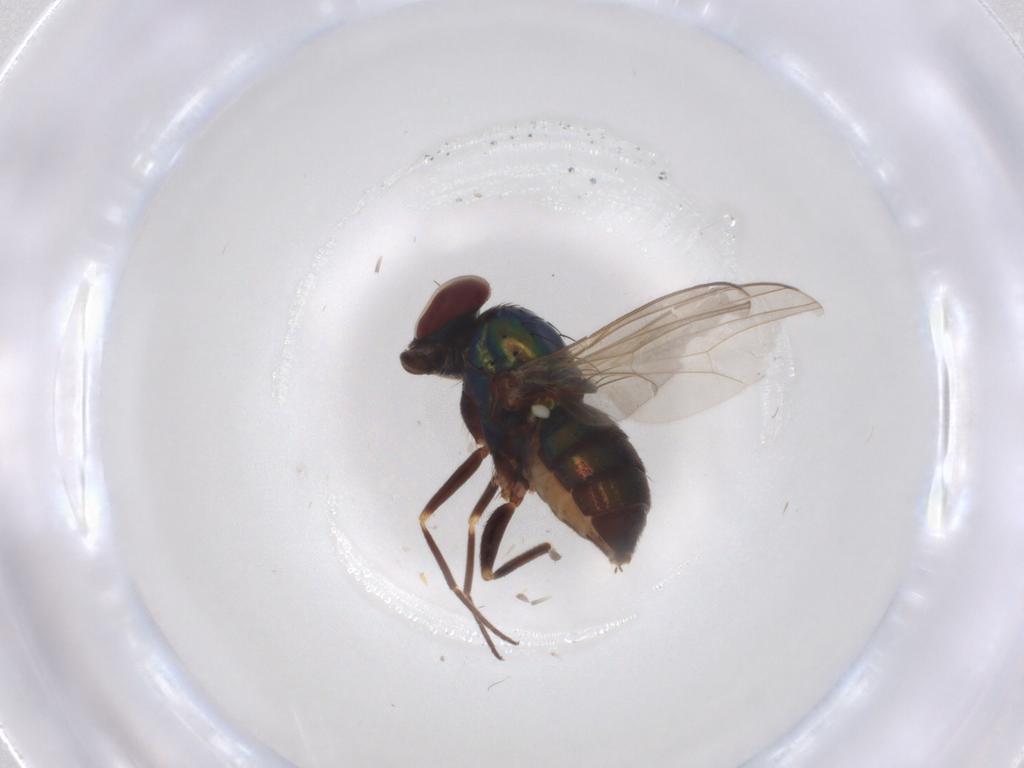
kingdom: Animalia
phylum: Arthropoda
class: Insecta
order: Diptera
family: Dolichopodidae
